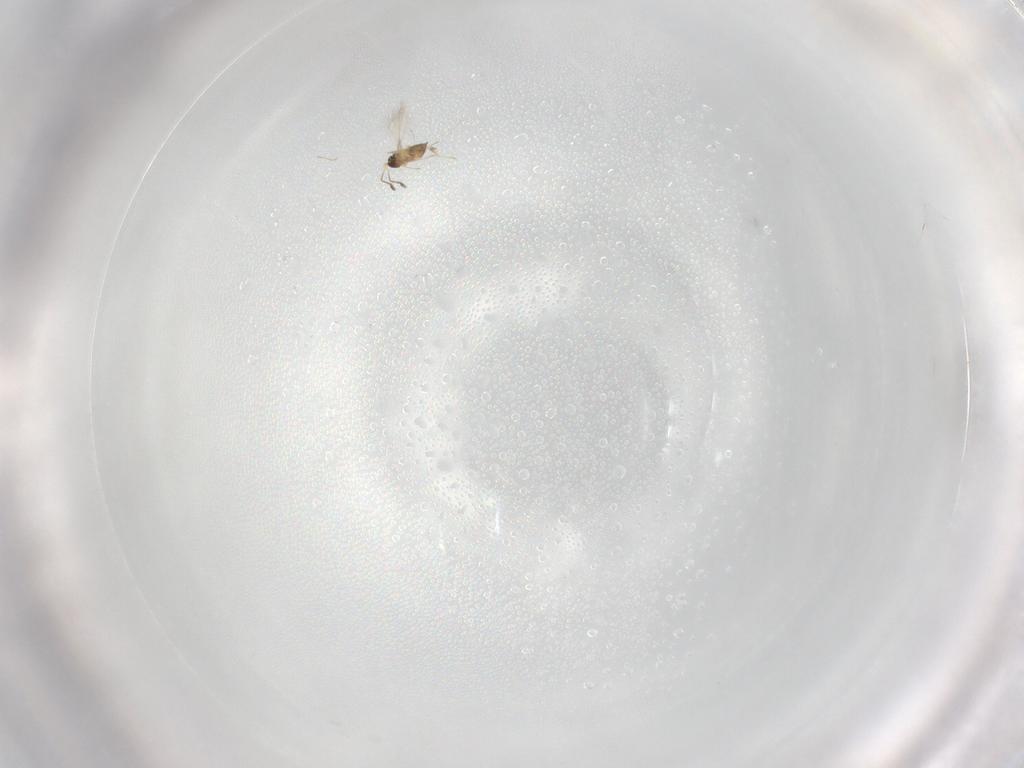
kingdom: Animalia
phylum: Arthropoda
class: Insecta
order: Hymenoptera
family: Mymaridae
